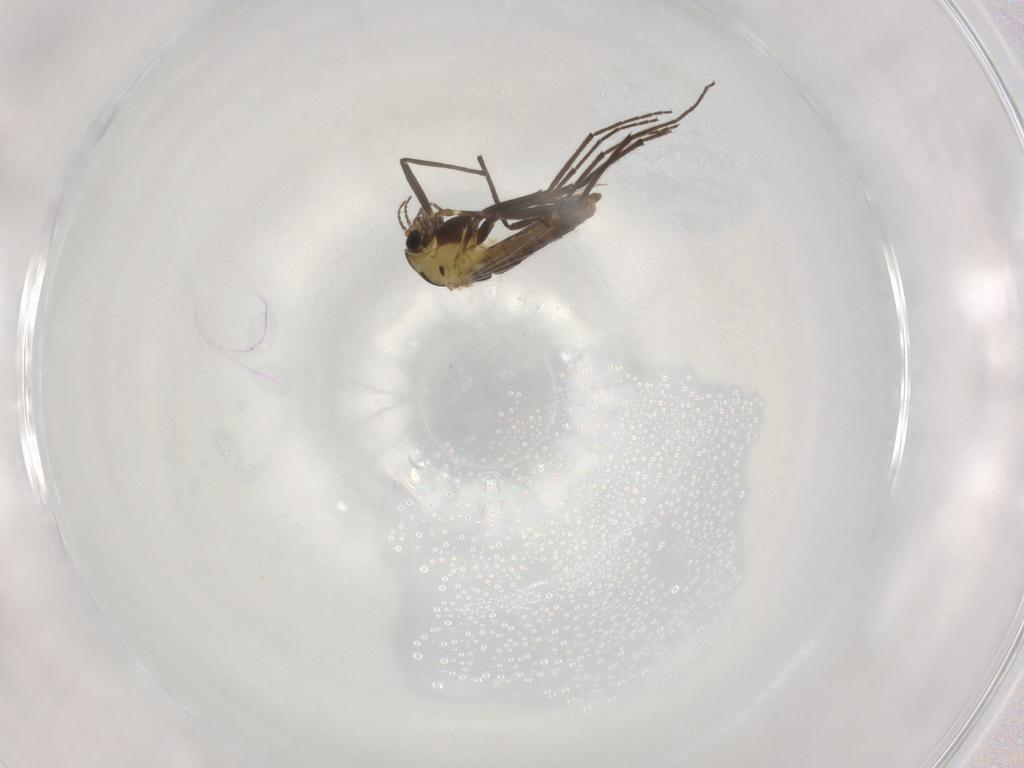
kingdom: Animalia
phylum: Arthropoda
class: Insecta
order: Diptera
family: Chironomidae
